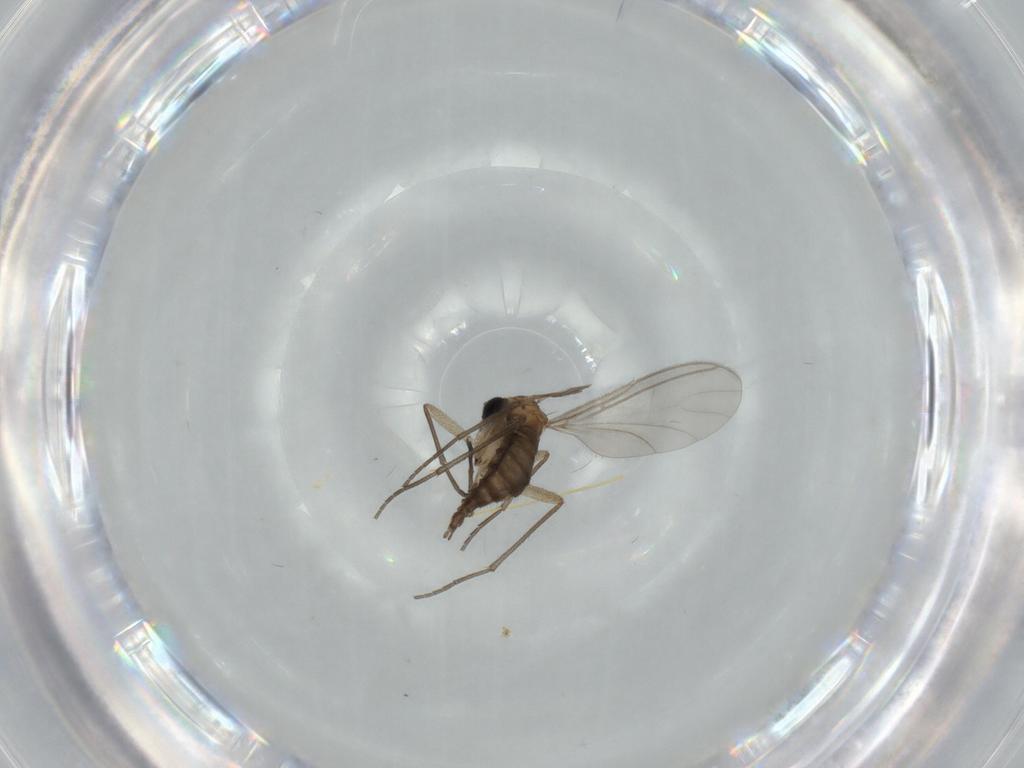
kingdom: Animalia
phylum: Arthropoda
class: Insecta
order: Diptera
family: Sciaridae
